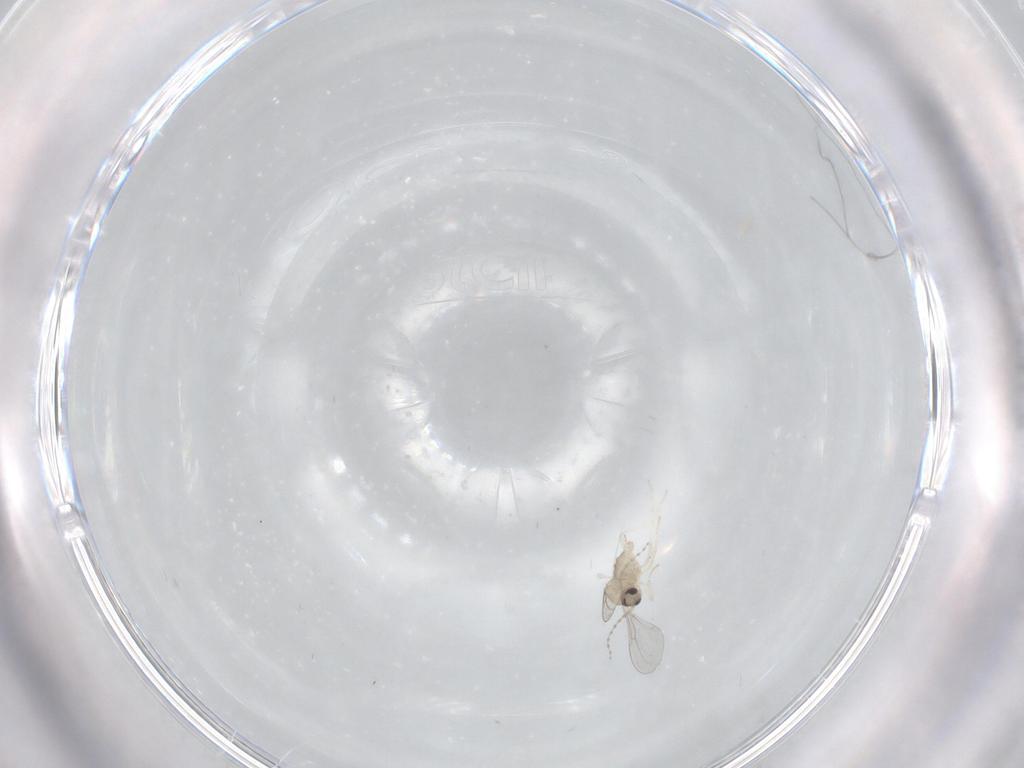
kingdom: Animalia
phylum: Arthropoda
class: Insecta
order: Diptera
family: Cecidomyiidae
